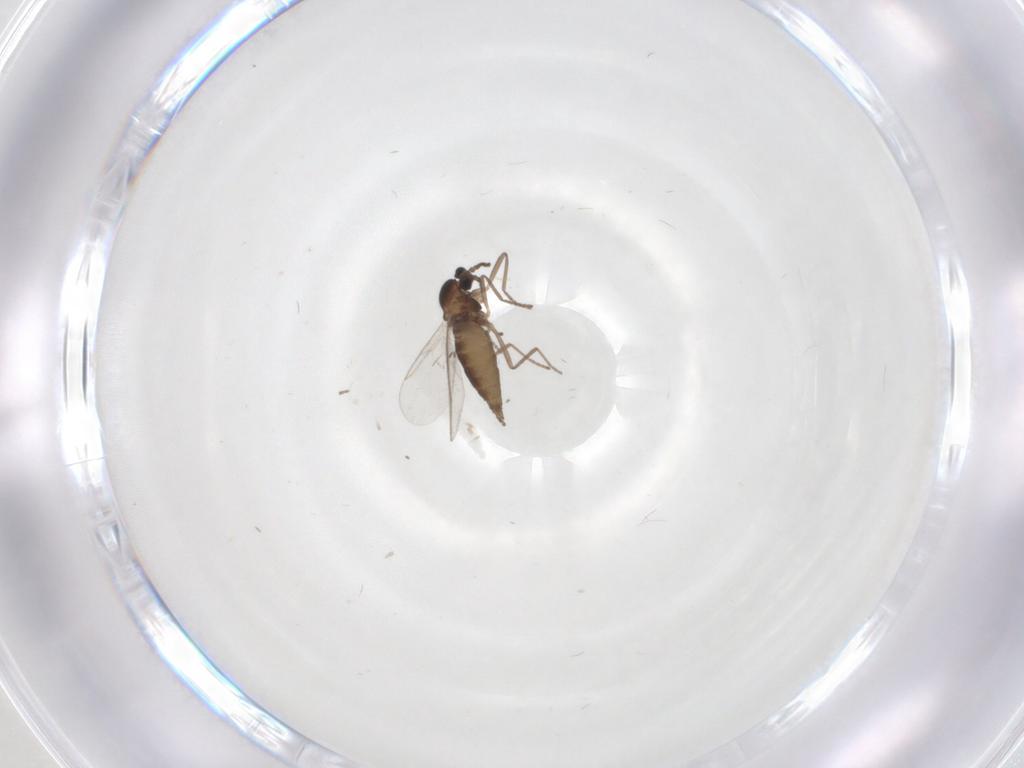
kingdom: Animalia
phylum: Arthropoda
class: Insecta
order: Diptera
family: Cecidomyiidae
